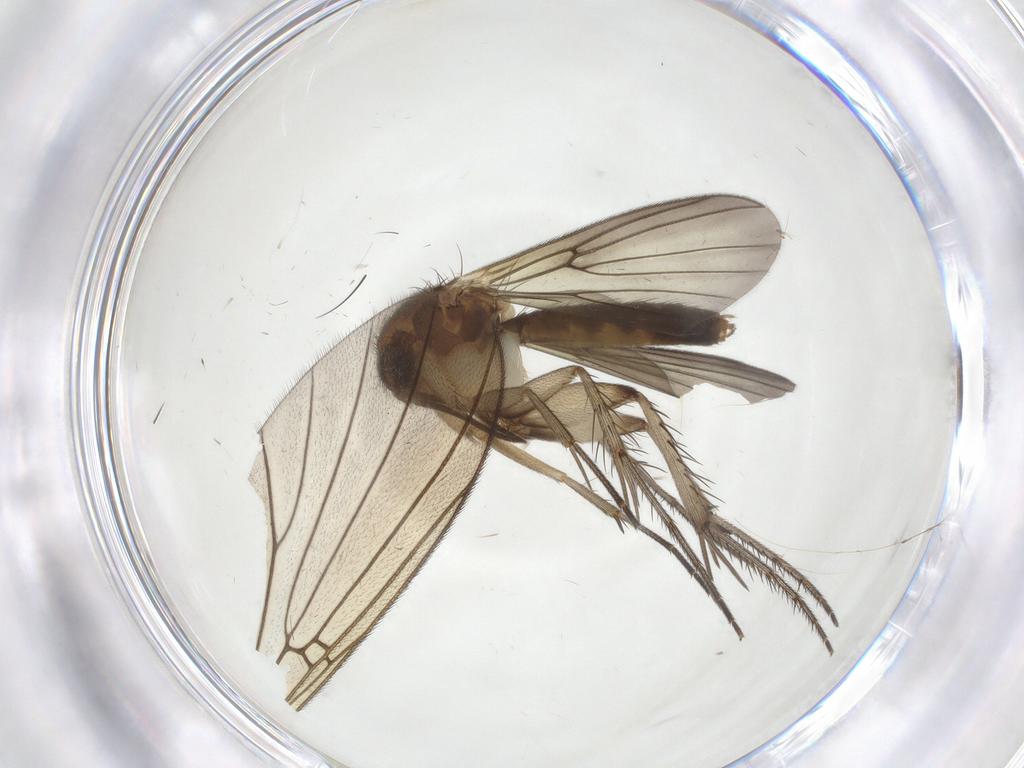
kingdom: Animalia
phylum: Arthropoda
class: Insecta
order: Diptera
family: Mycetophilidae
